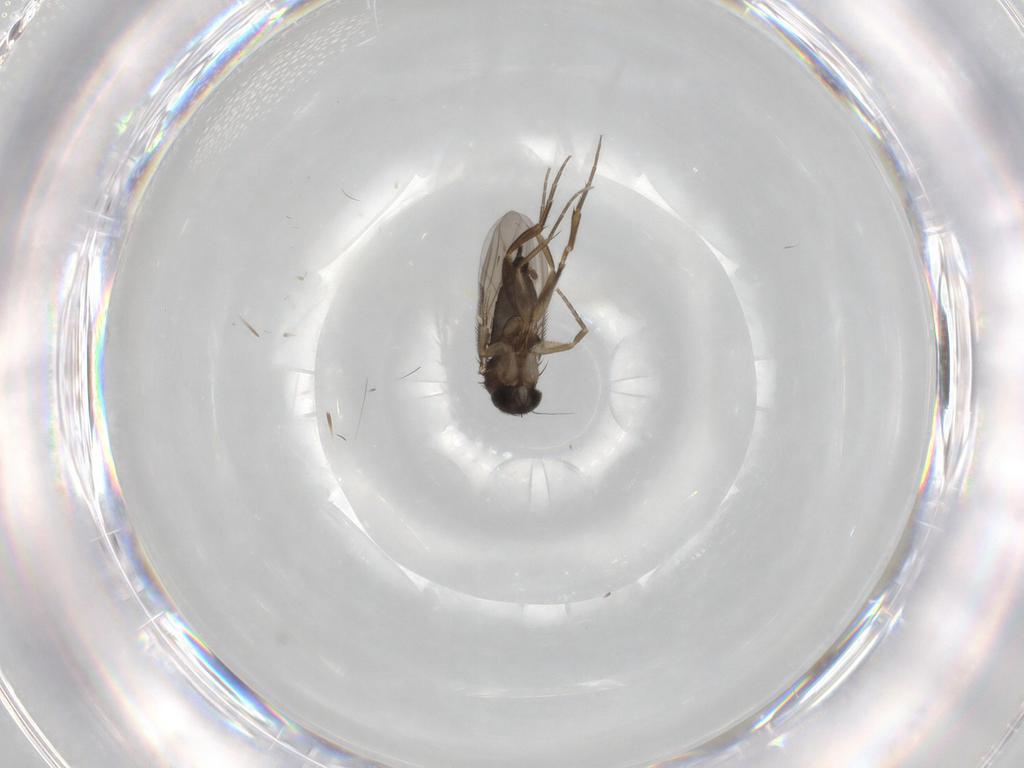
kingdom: Animalia
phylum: Arthropoda
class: Insecta
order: Diptera
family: Phoridae
